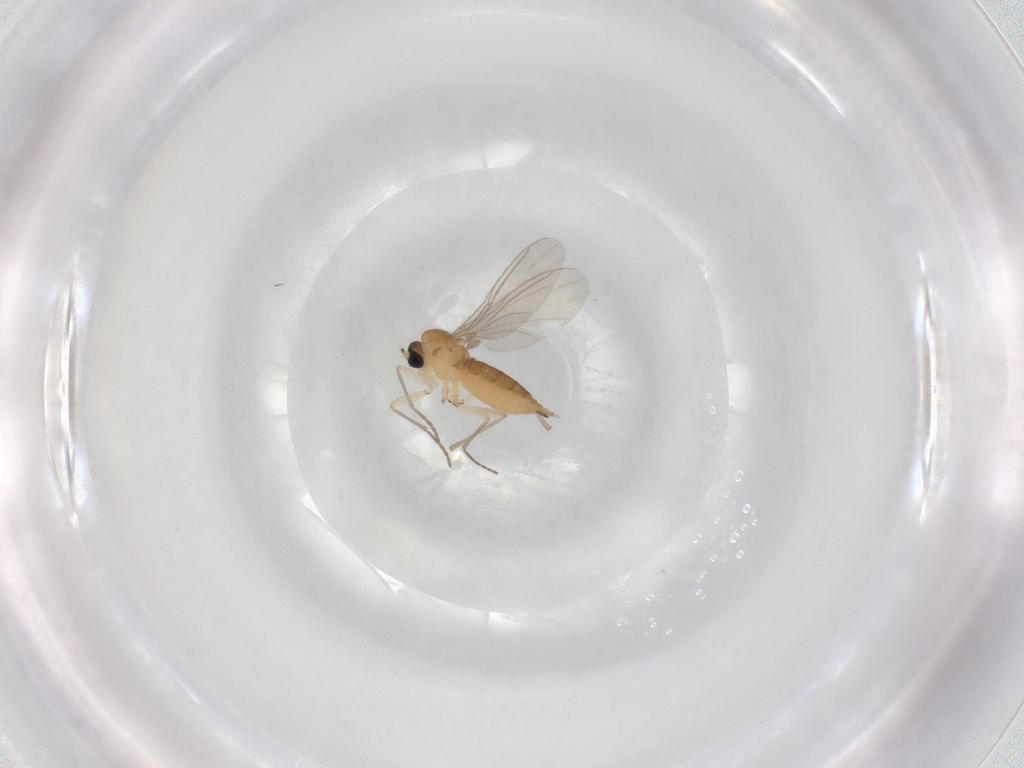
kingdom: Animalia
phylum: Arthropoda
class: Insecta
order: Diptera
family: Sciaridae
